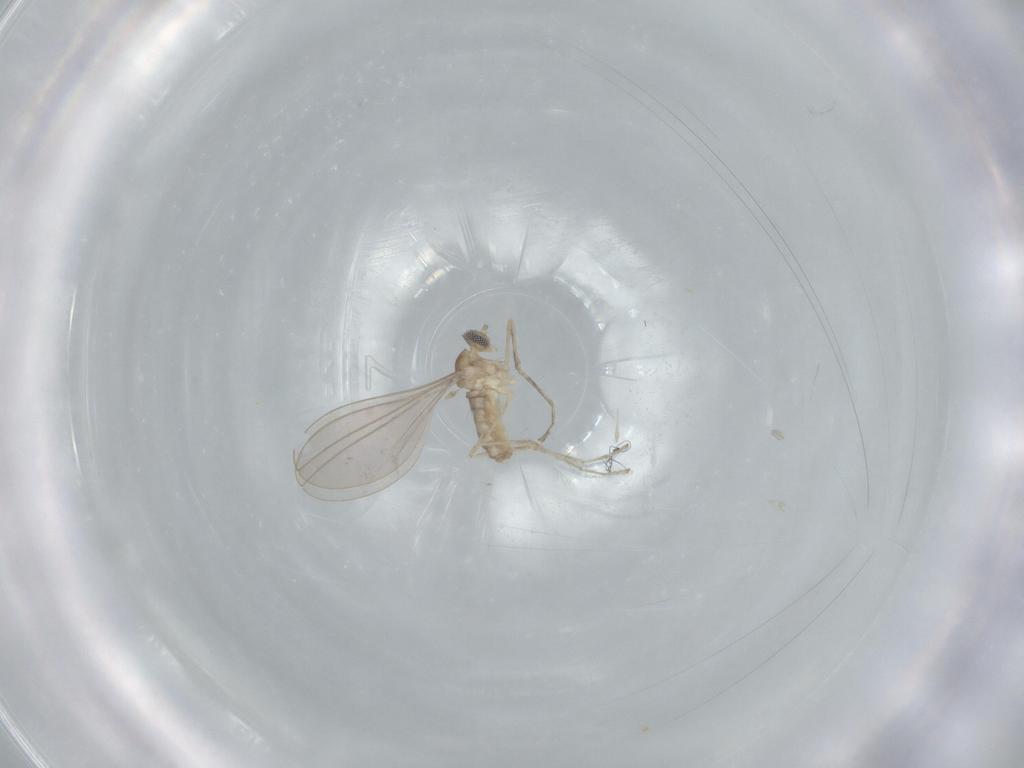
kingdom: Animalia
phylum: Arthropoda
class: Insecta
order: Diptera
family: Cecidomyiidae
